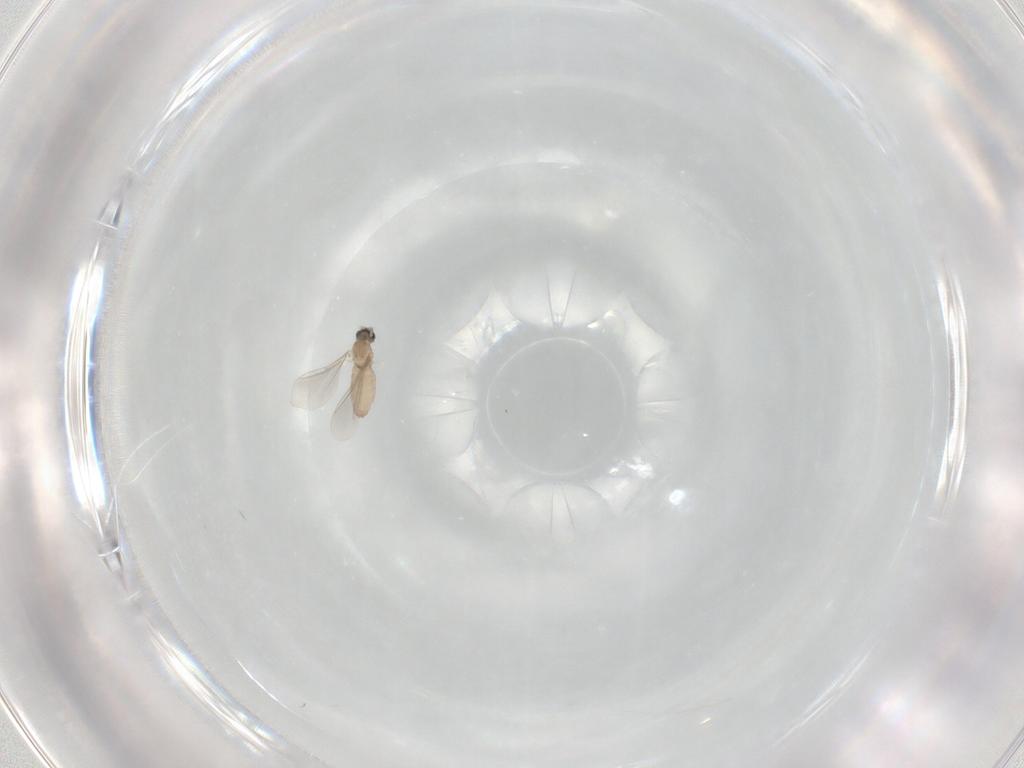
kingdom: Animalia
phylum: Arthropoda
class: Insecta
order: Diptera
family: Cecidomyiidae
